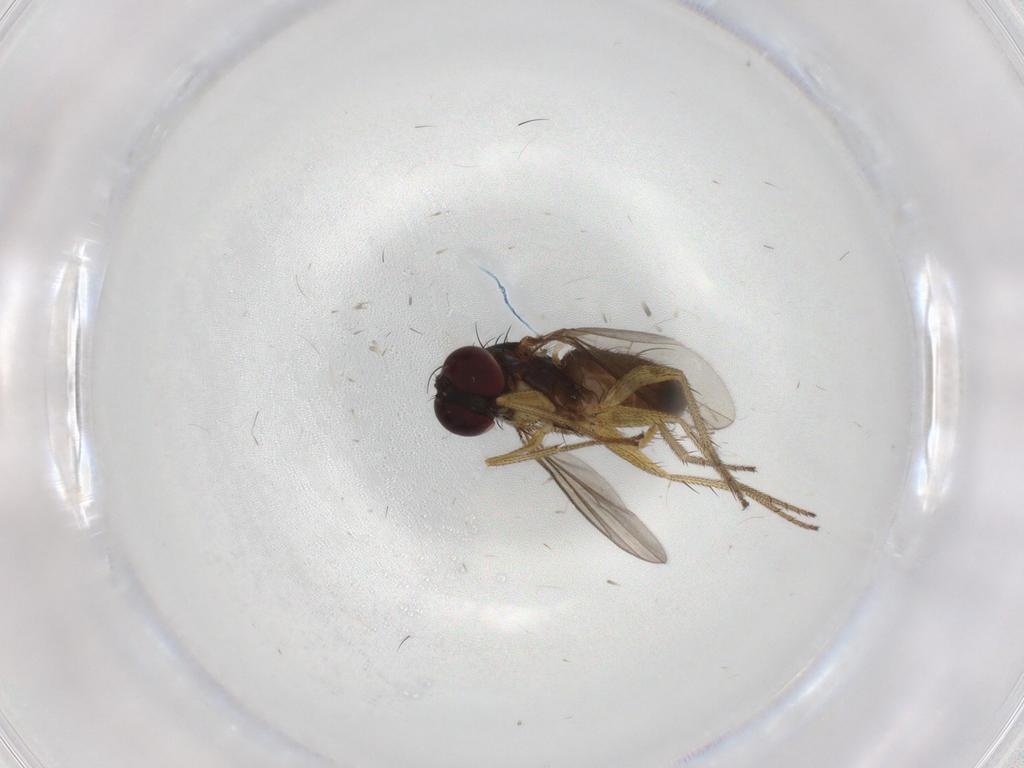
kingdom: Animalia
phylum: Arthropoda
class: Insecta
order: Diptera
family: Chironomidae
